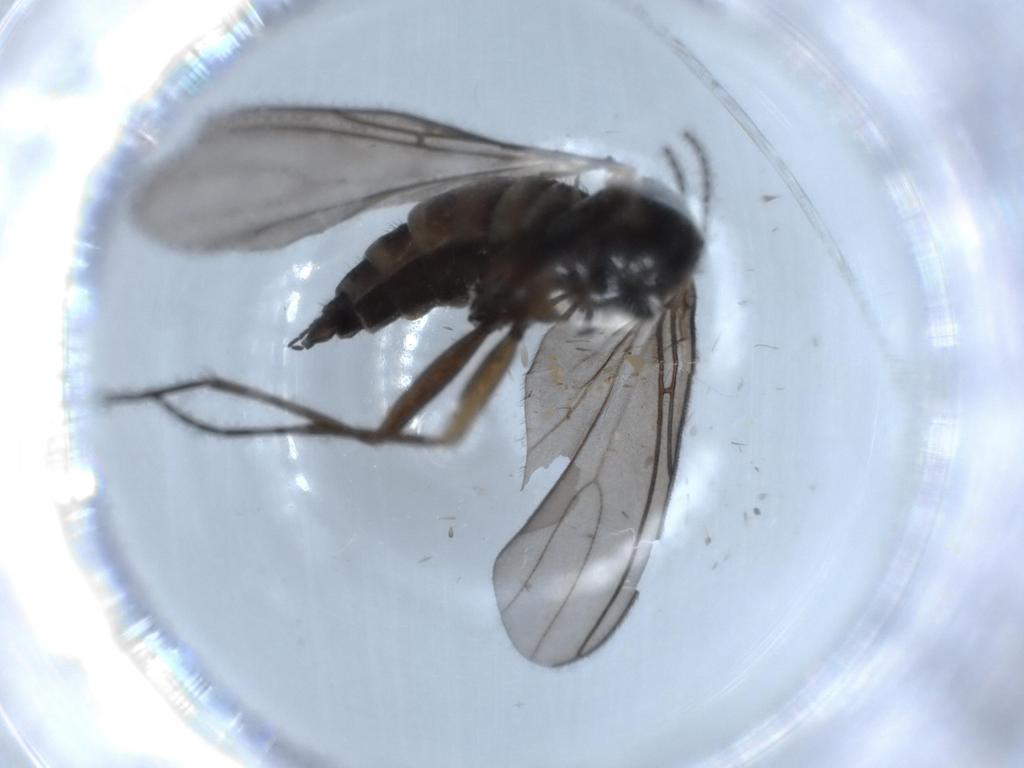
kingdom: Animalia
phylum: Arthropoda
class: Insecta
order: Diptera
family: Sciaridae
